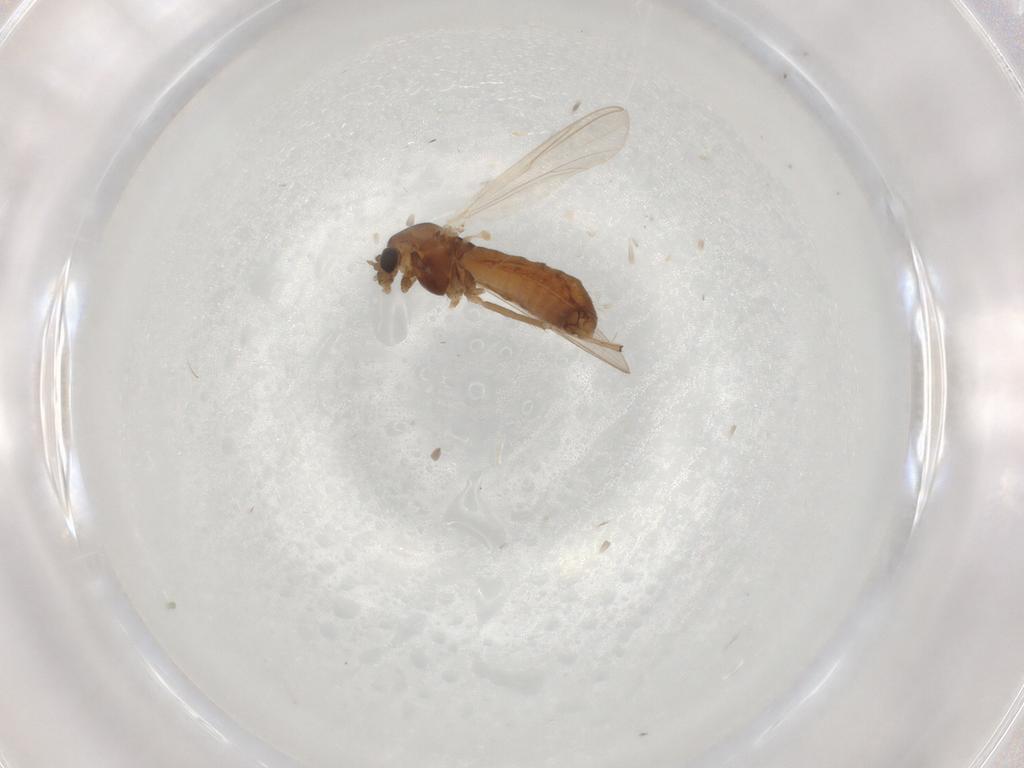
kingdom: Animalia
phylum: Arthropoda
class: Insecta
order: Diptera
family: Chironomidae
